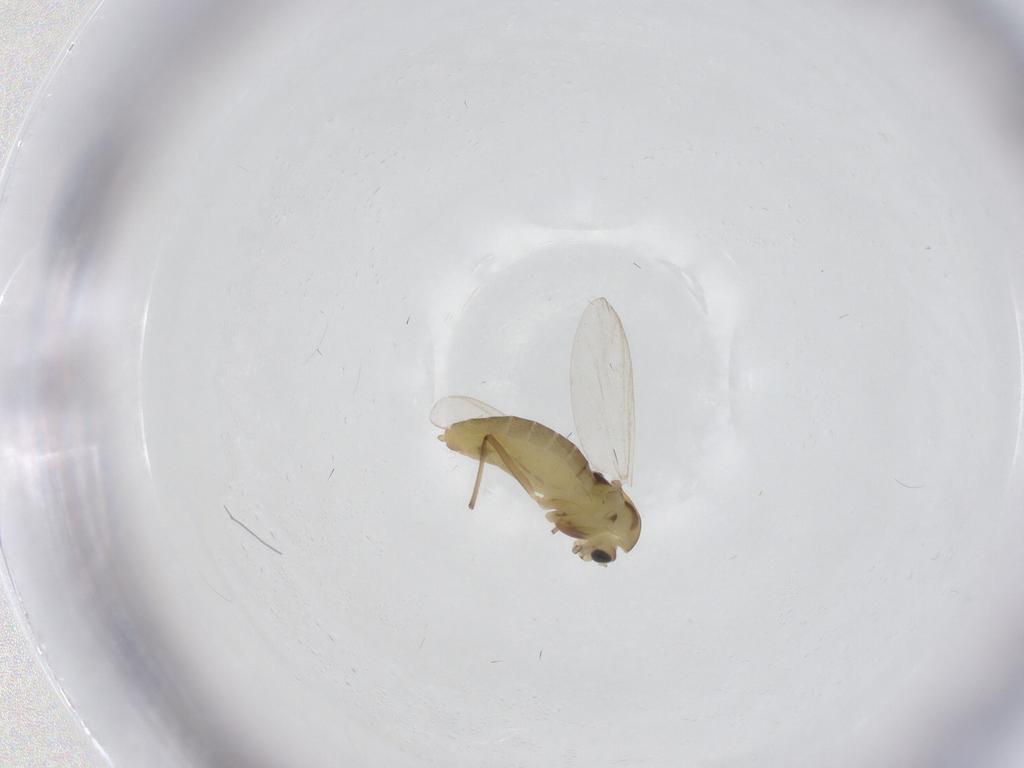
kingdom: Animalia
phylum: Arthropoda
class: Insecta
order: Diptera
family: Chironomidae
